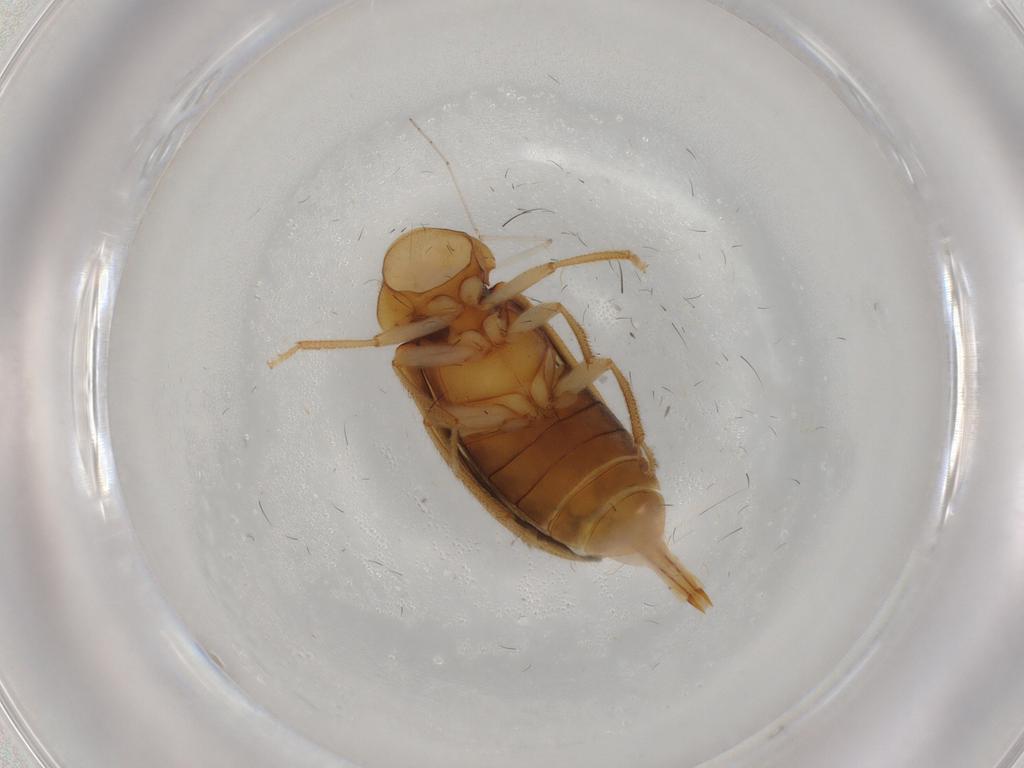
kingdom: Animalia
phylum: Arthropoda
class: Insecta
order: Coleoptera
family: Ptilodactylidae
